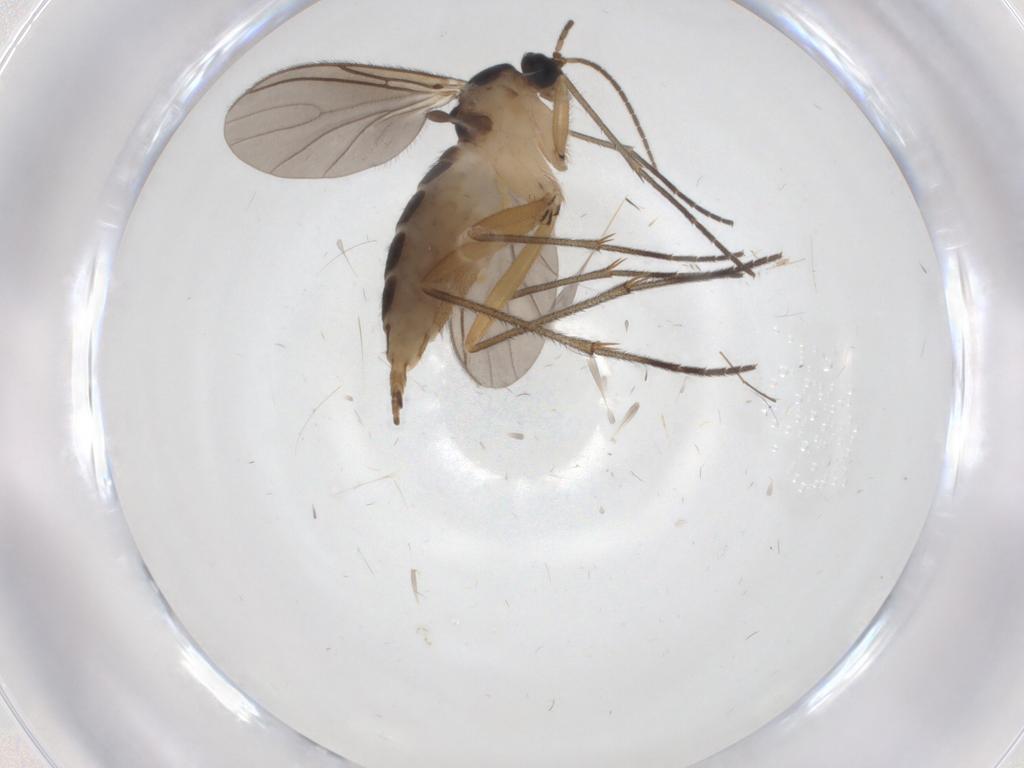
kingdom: Animalia
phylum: Arthropoda
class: Insecta
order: Diptera
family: Sciaridae
